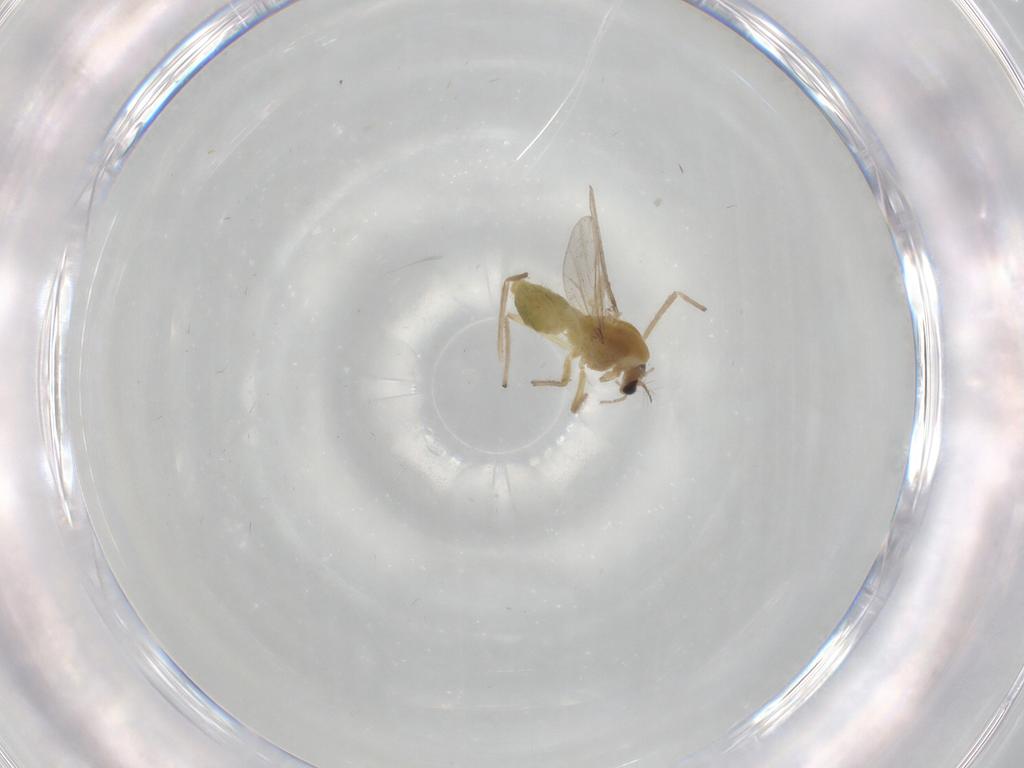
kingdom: Animalia
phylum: Arthropoda
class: Insecta
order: Diptera
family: Chironomidae
